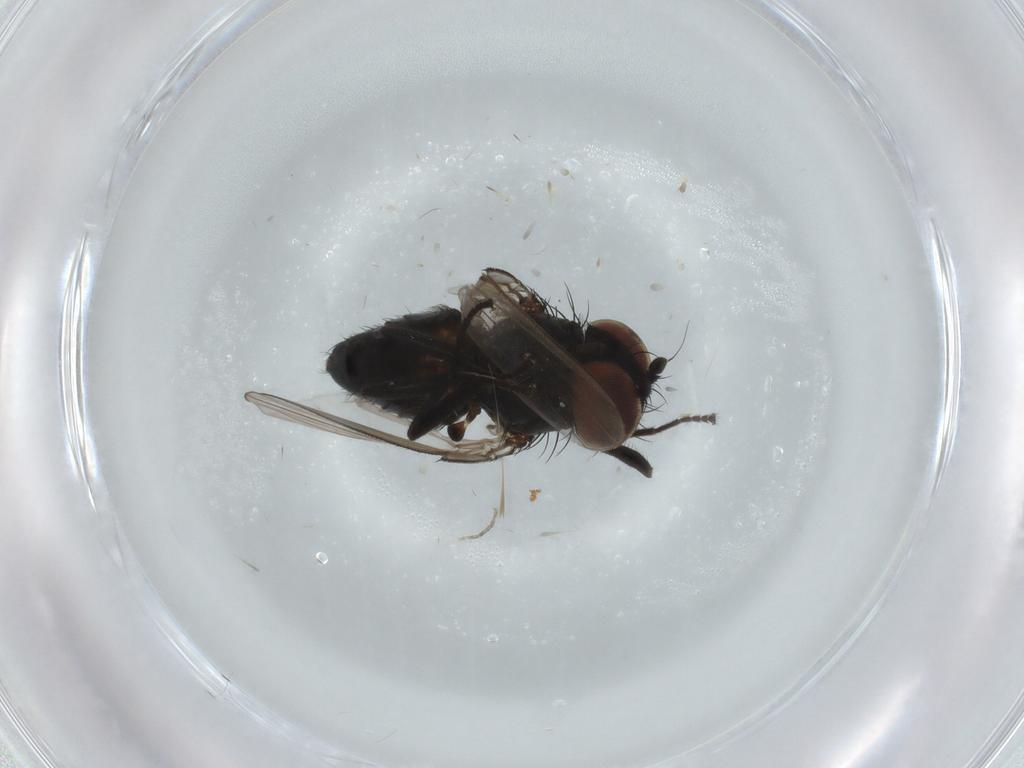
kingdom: Animalia
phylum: Arthropoda
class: Insecta
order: Diptera
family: Milichiidae
